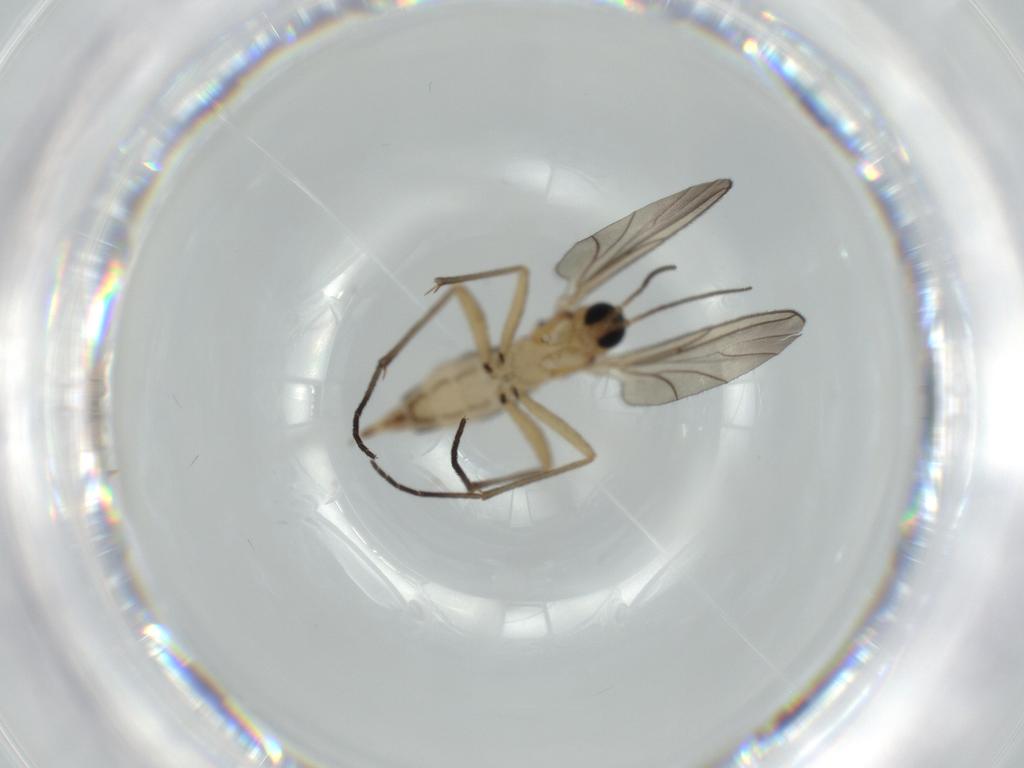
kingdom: Animalia
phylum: Arthropoda
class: Insecta
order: Diptera
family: Sciaridae
